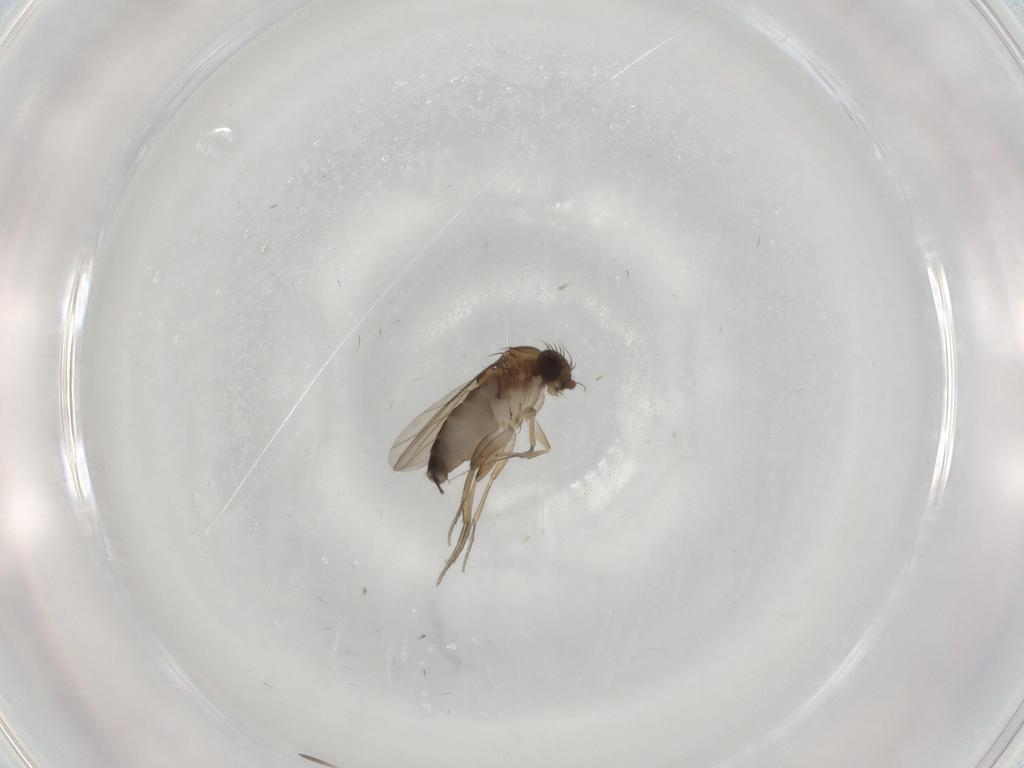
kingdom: Animalia
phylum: Arthropoda
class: Insecta
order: Diptera
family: Phoridae
